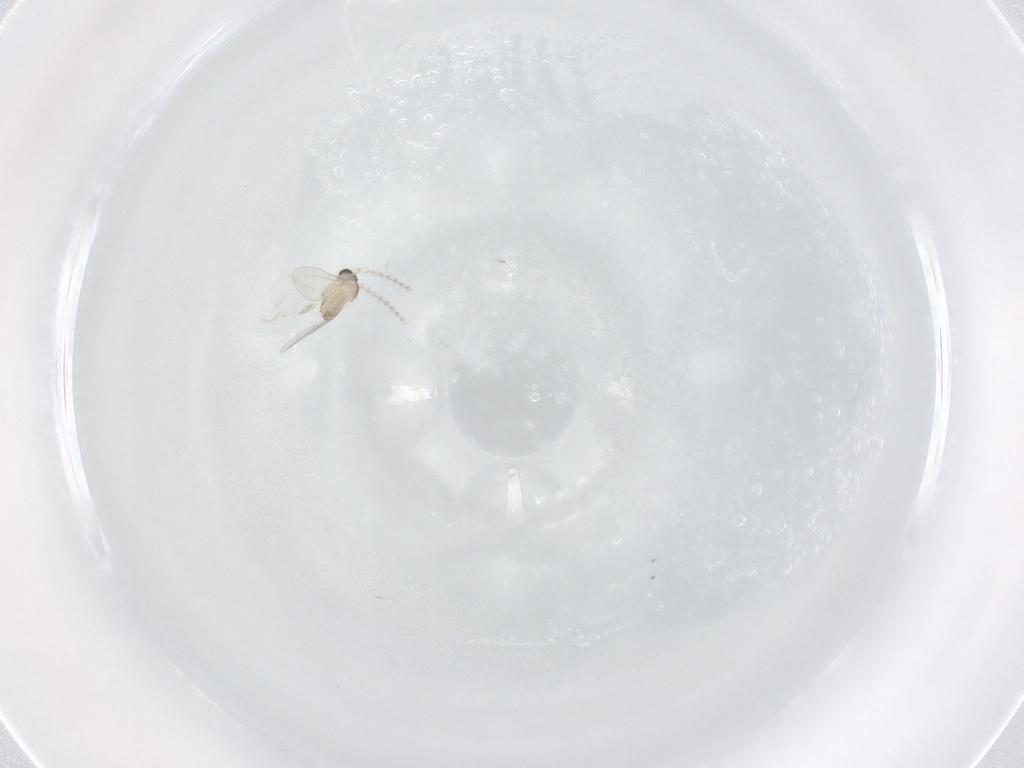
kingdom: Animalia
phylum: Arthropoda
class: Insecta
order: Diptera
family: Cecidomyiidae
